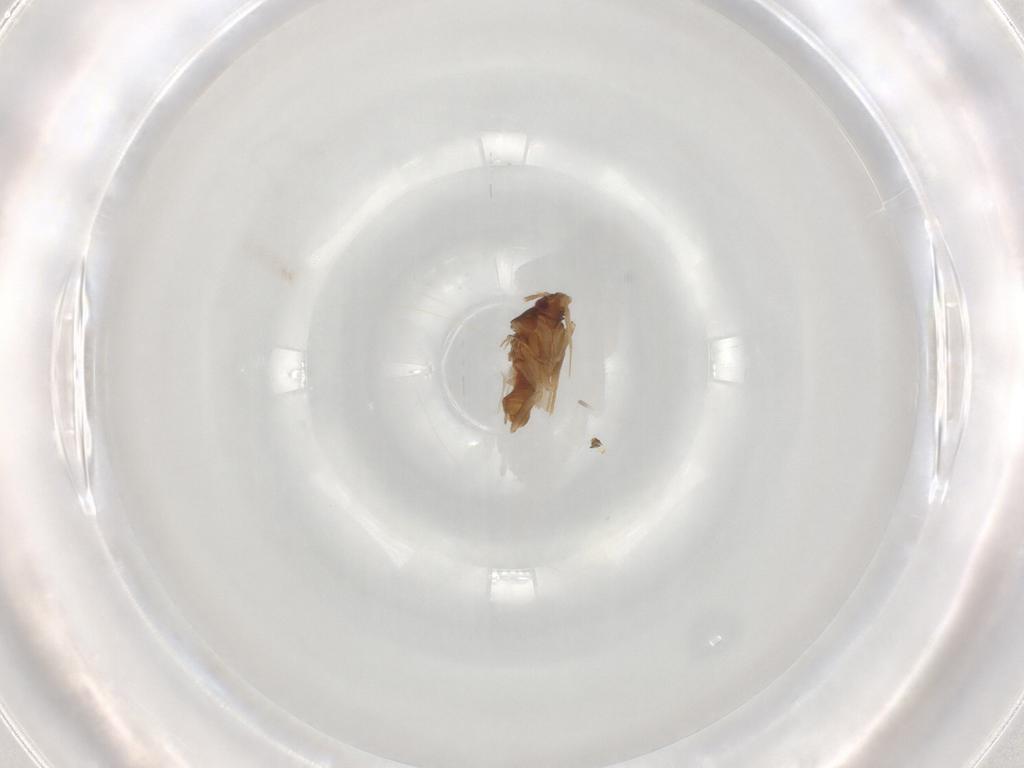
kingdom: Animalia
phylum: Arthropoda
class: Insecta
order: Hemiptera
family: Ceratocombidae
